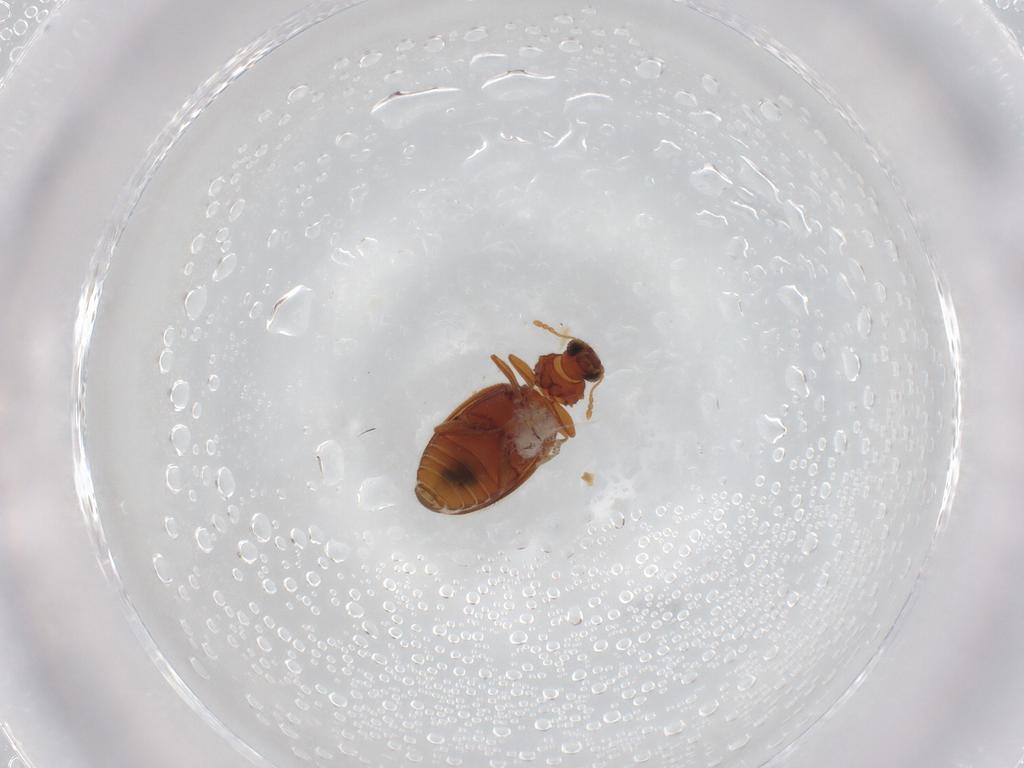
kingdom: Animalia
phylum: Arthropoda
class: Insecta
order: Coleoptera
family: Latridiidae
